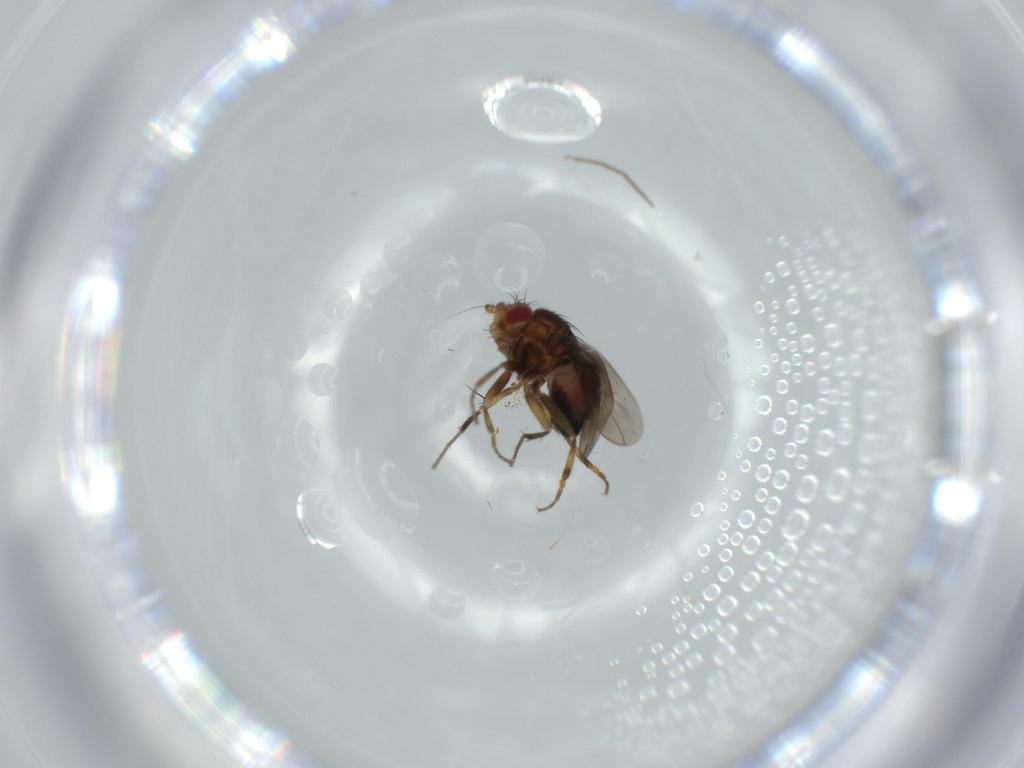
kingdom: Animalia
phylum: Arthropoda
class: Insecta
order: Diptera
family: Chironomidae
